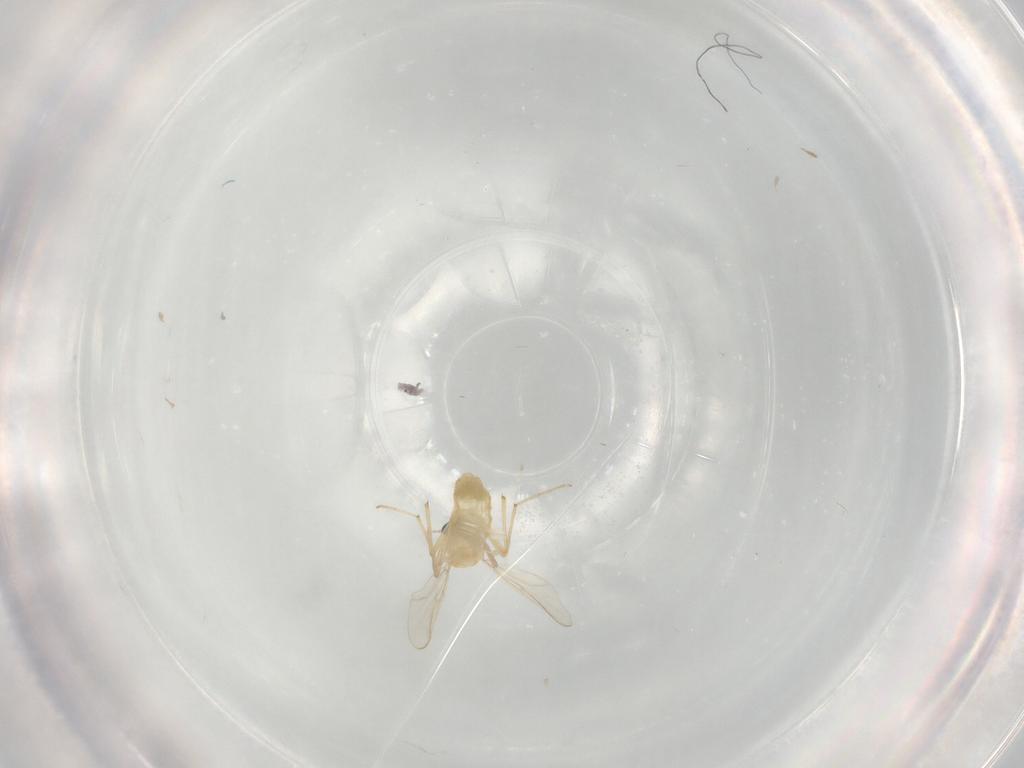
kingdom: Animalia
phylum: Arthropoda
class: Insecta
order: Diptera
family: Chironomidae
